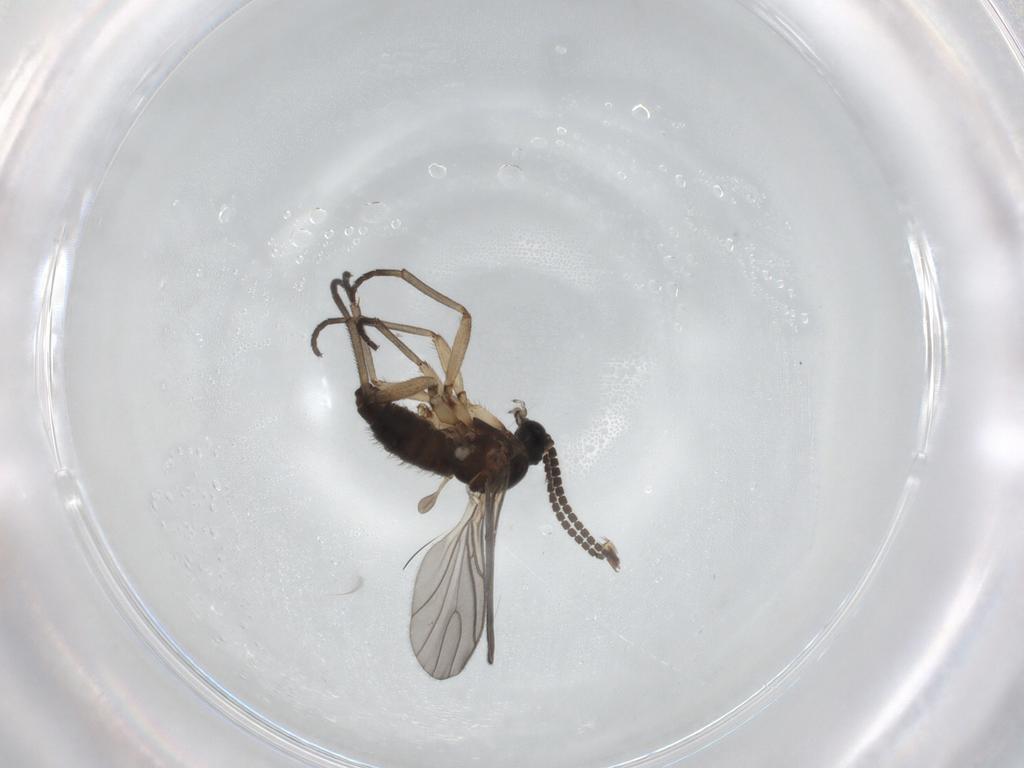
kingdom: Animalia
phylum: Arthropoda
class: Insecta
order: Diptera
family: Sciaridae
